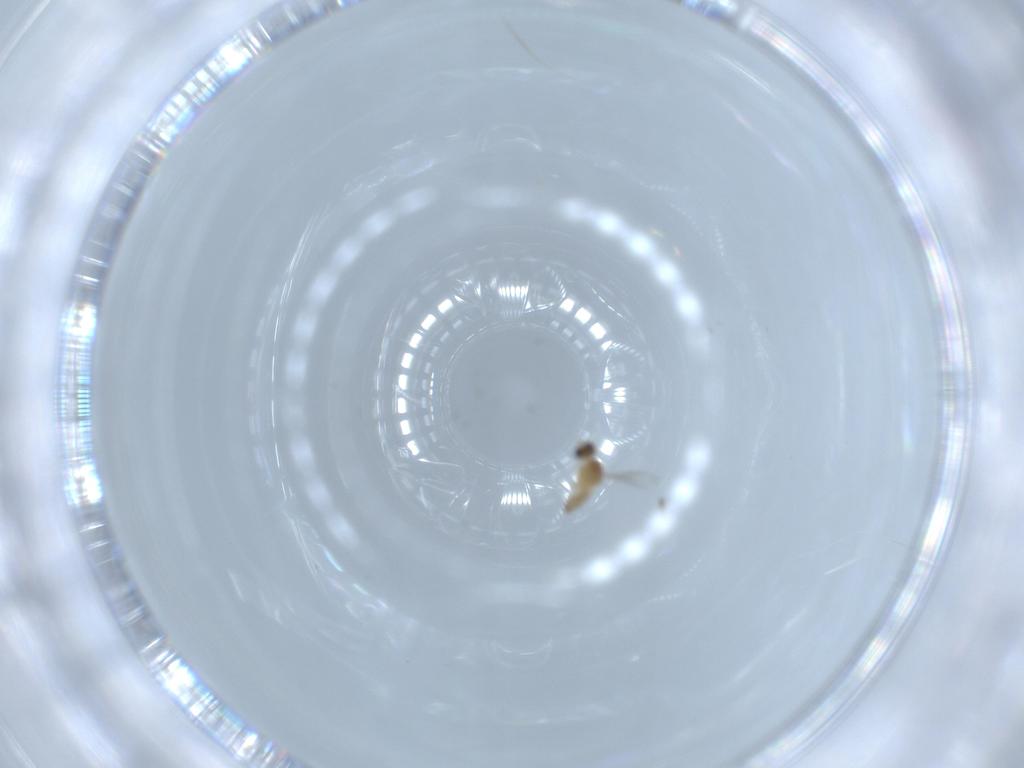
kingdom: Animalia
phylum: Arthropoda
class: Insecta
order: Diptera
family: Cecidomyiidae
